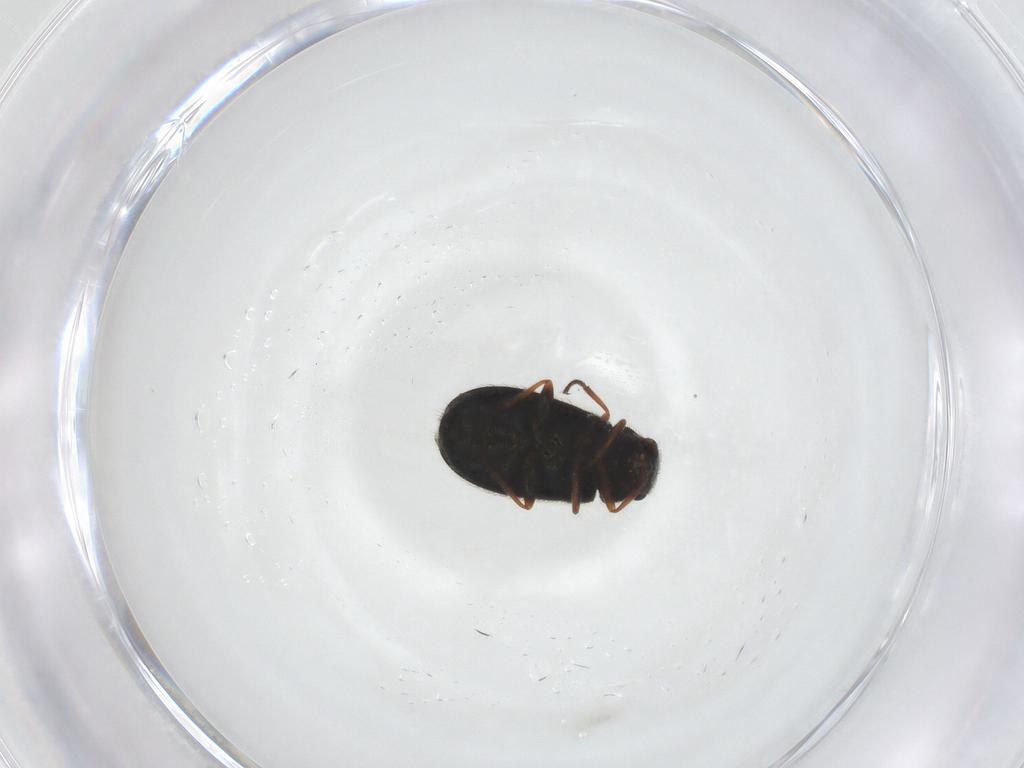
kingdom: Animalia
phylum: Arthropoda
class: Insecta
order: Coleoptera
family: Melyridae
